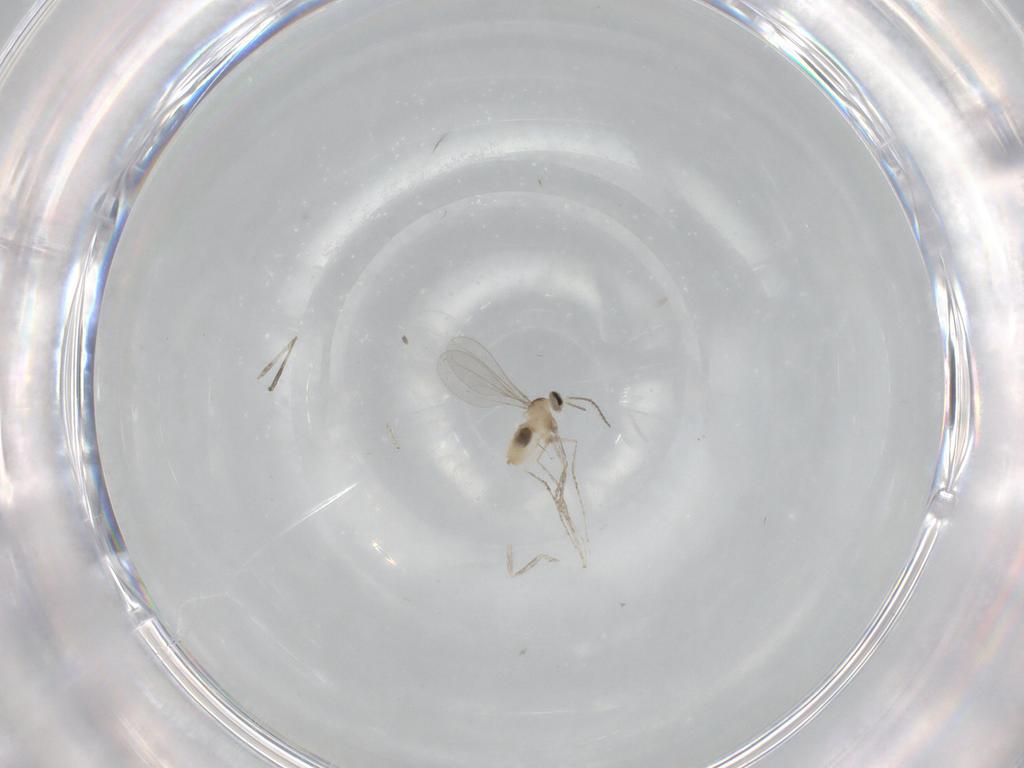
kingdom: Animalia
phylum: Arthropoda
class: Insecta
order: Diptera
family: Cecidomyiidae
